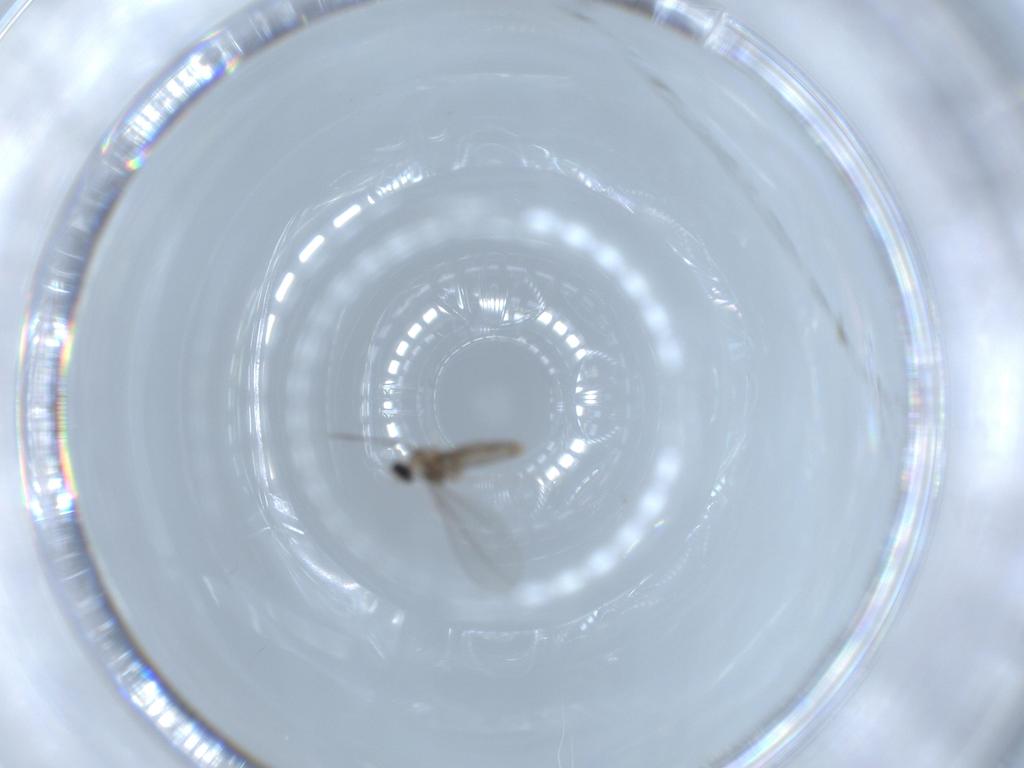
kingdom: Animalia
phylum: Arthropoda
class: Insecta
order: Diptera
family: Cecidomyiidae
